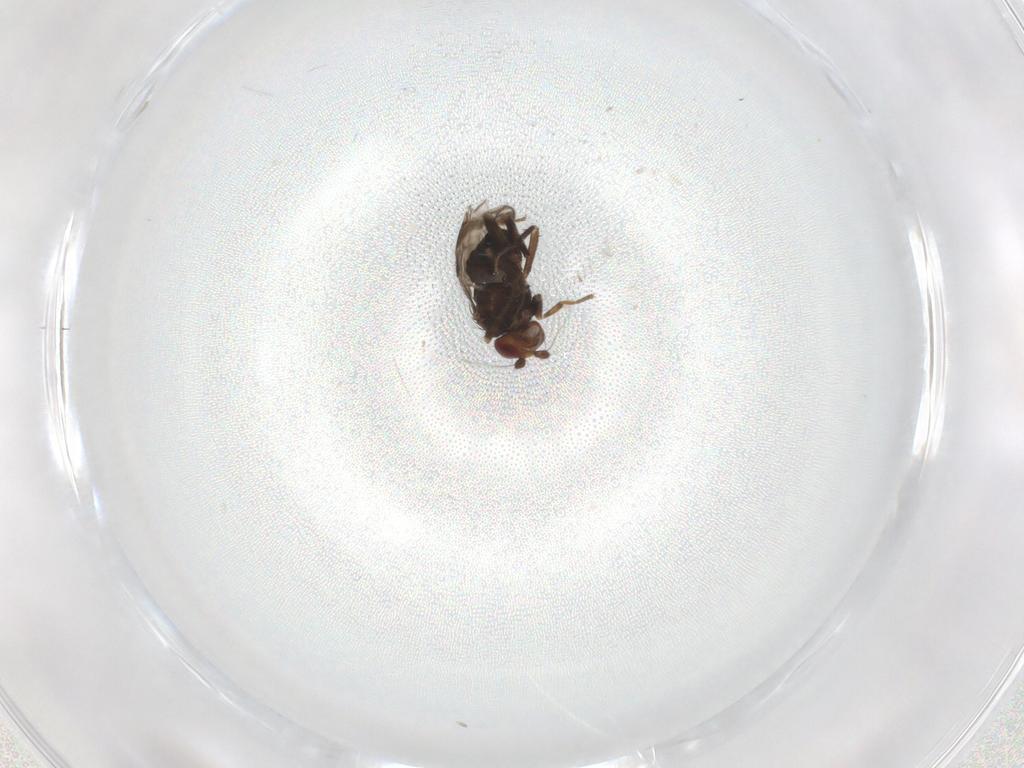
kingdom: Animalia
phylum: Arthropoda
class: Insecta
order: Diptera
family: Sphaeroceridae
